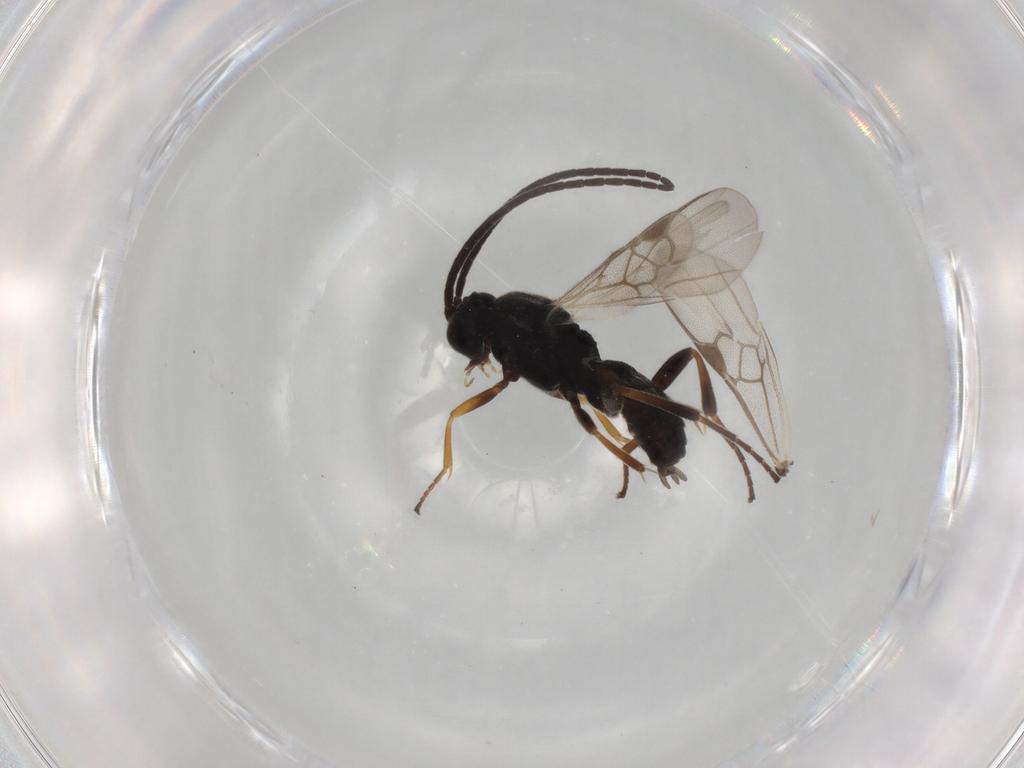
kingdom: Animalia
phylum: Arthropoda
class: Insecta
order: Hymenoptera
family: Braconidae
